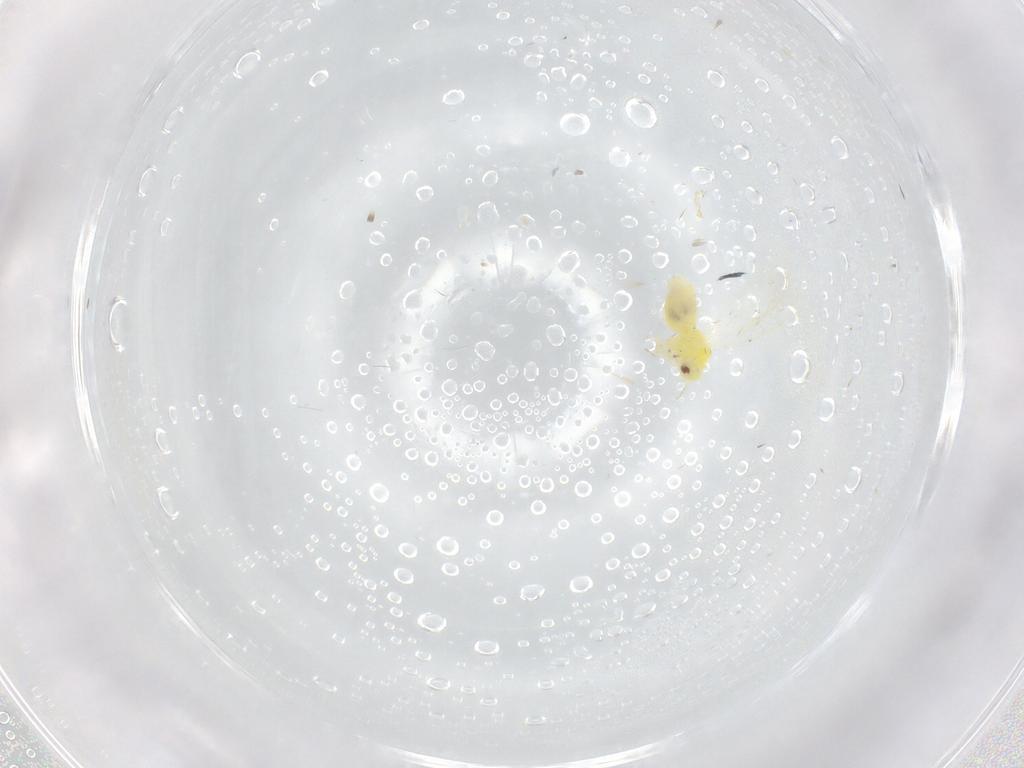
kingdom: Animalia
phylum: Arthropoda
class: Insecta
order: Hemiptera
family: Aleyrodidae
